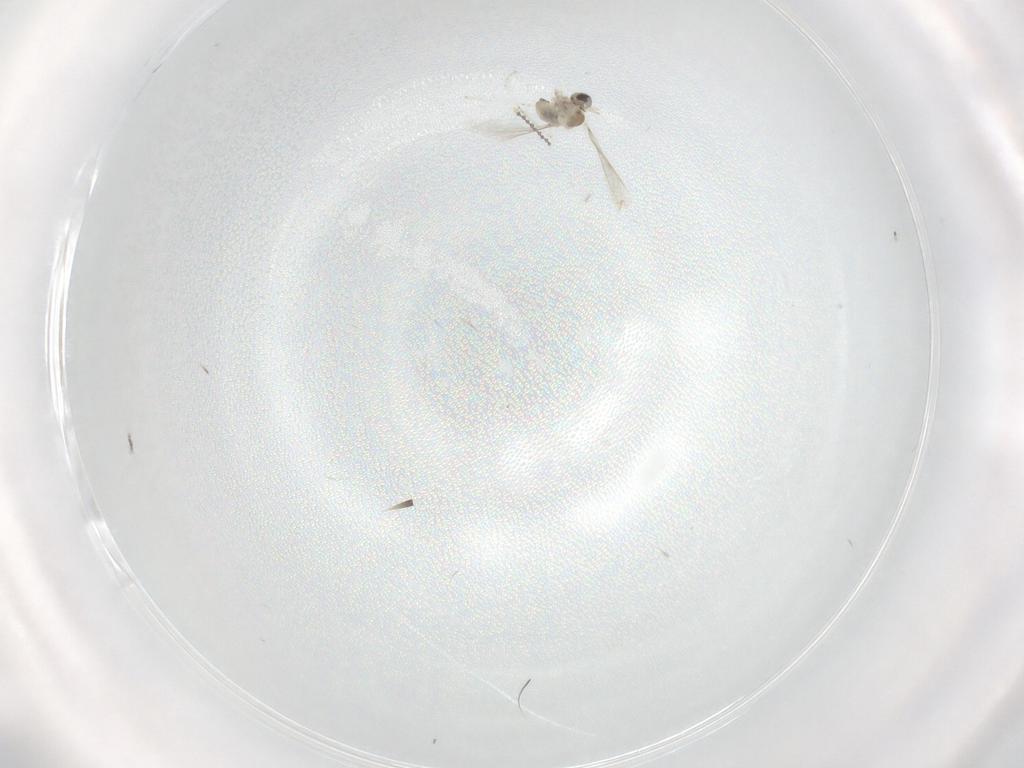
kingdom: Animalia
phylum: Arthropoda
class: Insecta
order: Diptera
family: Cecidomyiidae
